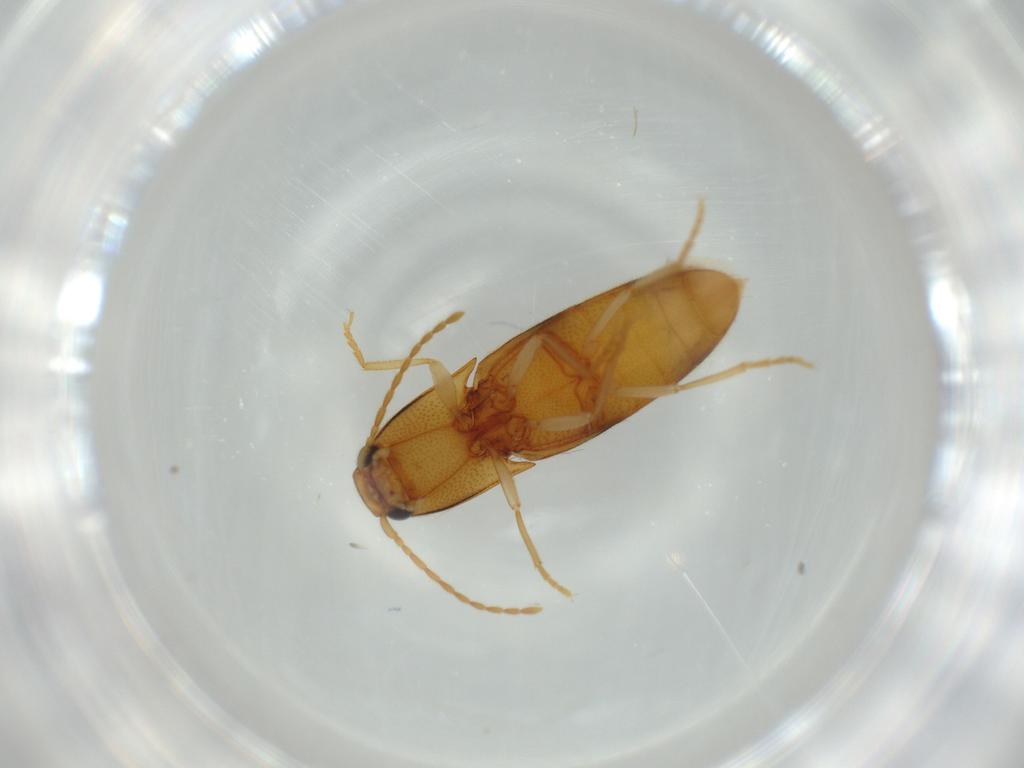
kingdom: Animalia
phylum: Arthropoda
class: Insecta
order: Coleoptera
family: Elateridae
